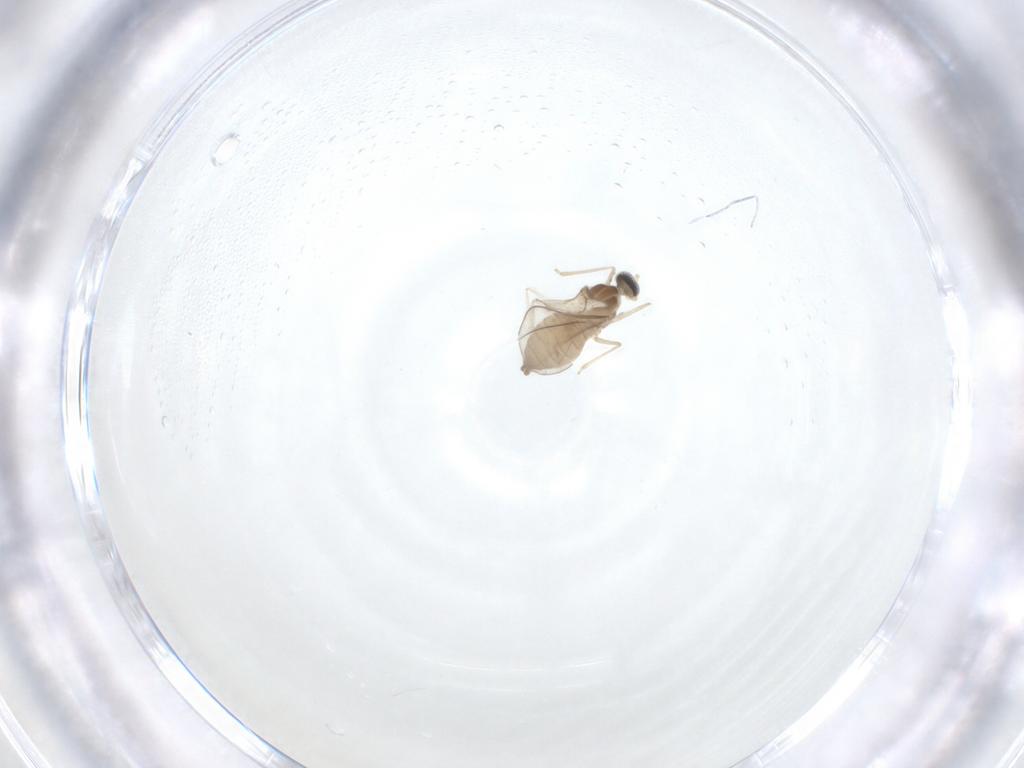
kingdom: Animalia
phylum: Arthropoda
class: Insecta
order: Diptera
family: Cecidomyiidae
